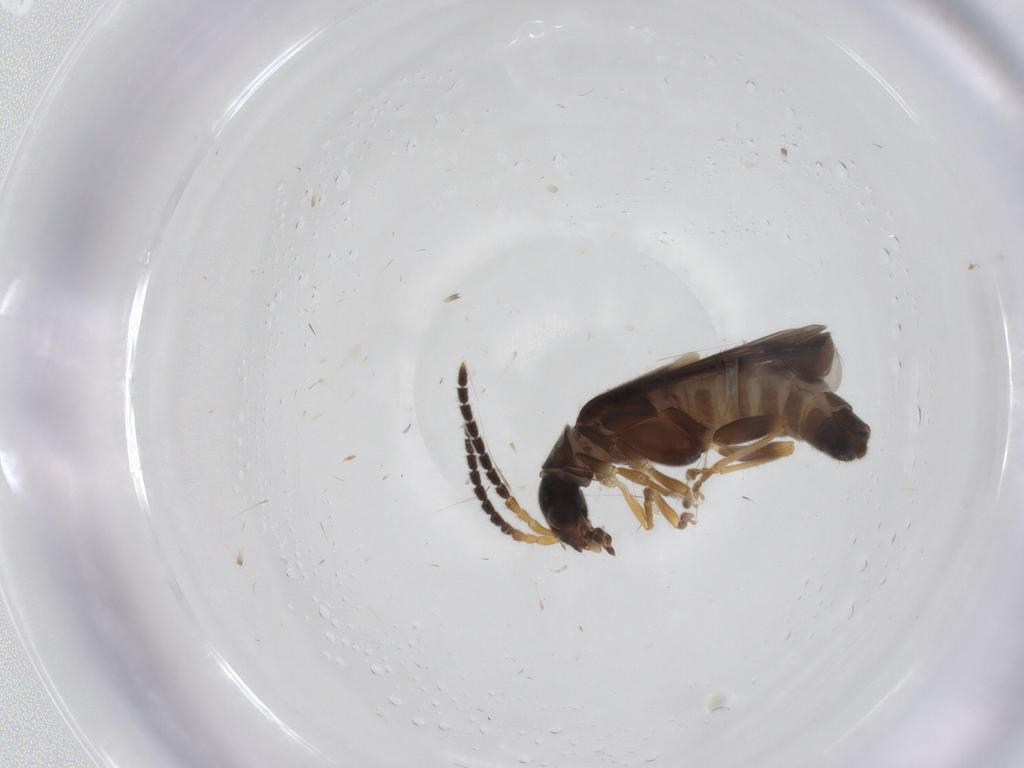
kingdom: Animalia
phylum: Arthropoda
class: Insecta
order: Coleoptera
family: Cantharidae
